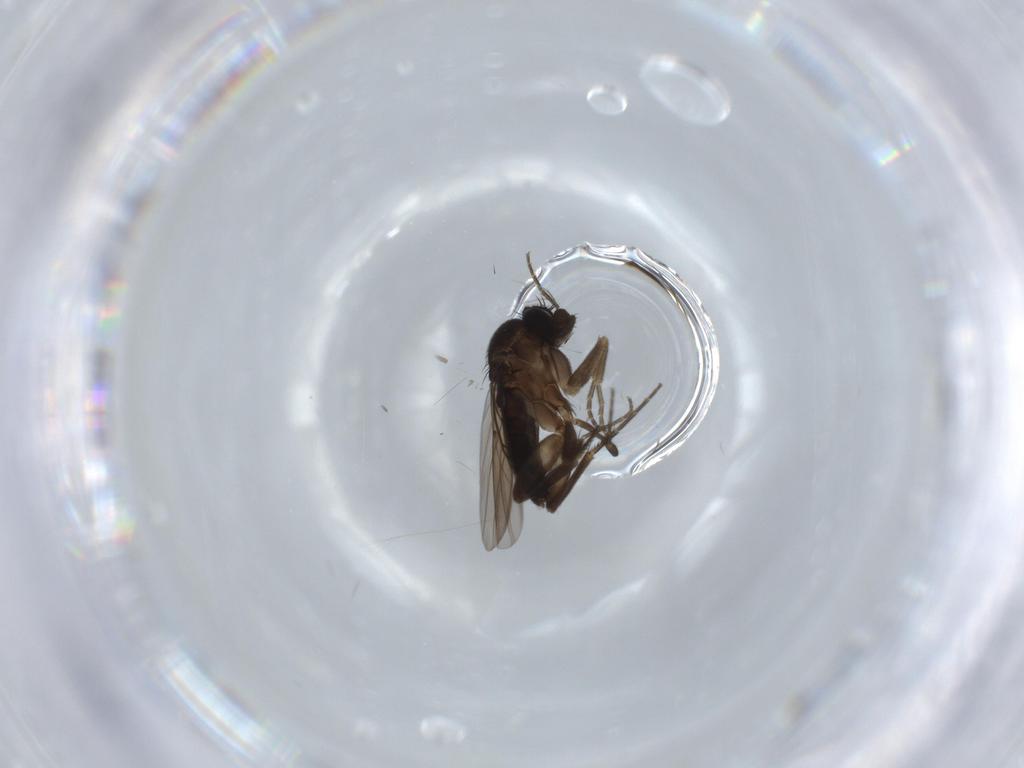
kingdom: Animalia
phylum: Arthropoda
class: Insecta
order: Diptera
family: Phoridae
